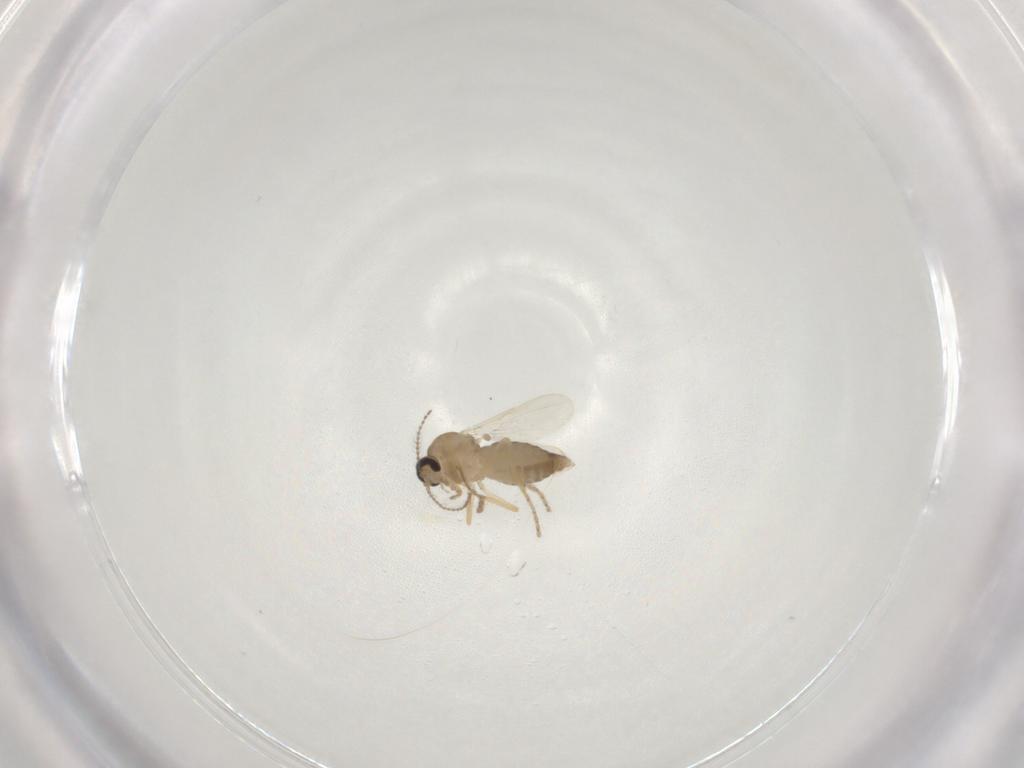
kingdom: Animalia
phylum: Arthropoda
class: Insecta
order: Diptera
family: Ceratopogonidae
